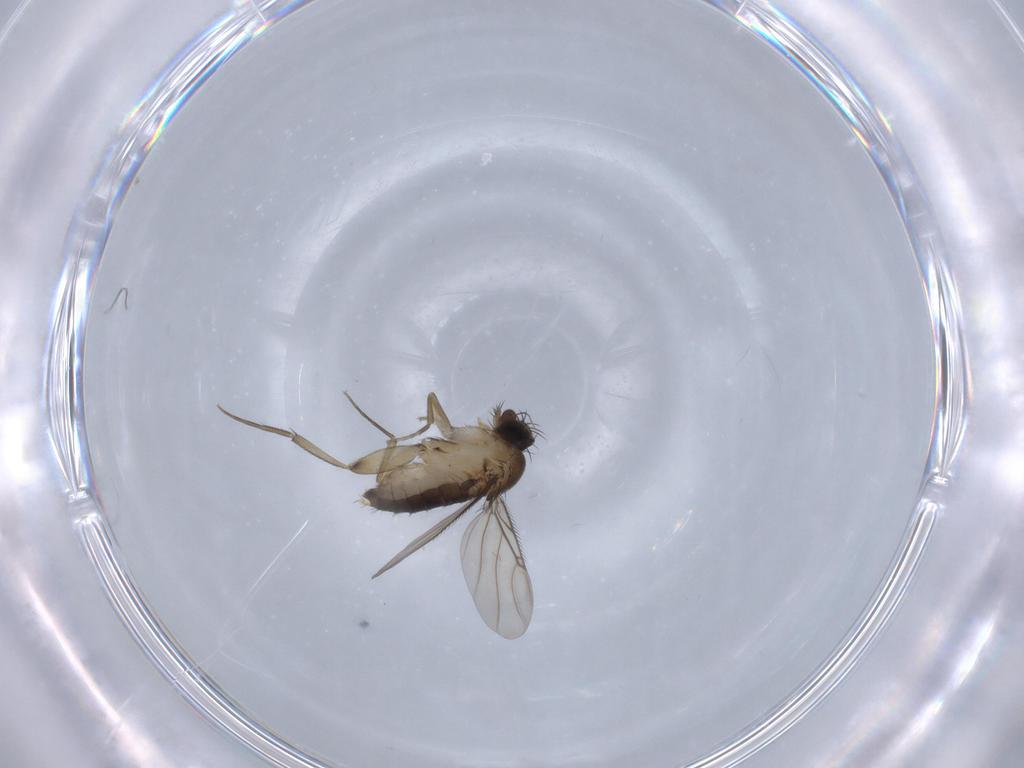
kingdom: Animalia
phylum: Arthropoda
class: Insecta
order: Diptera
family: Phoridae
